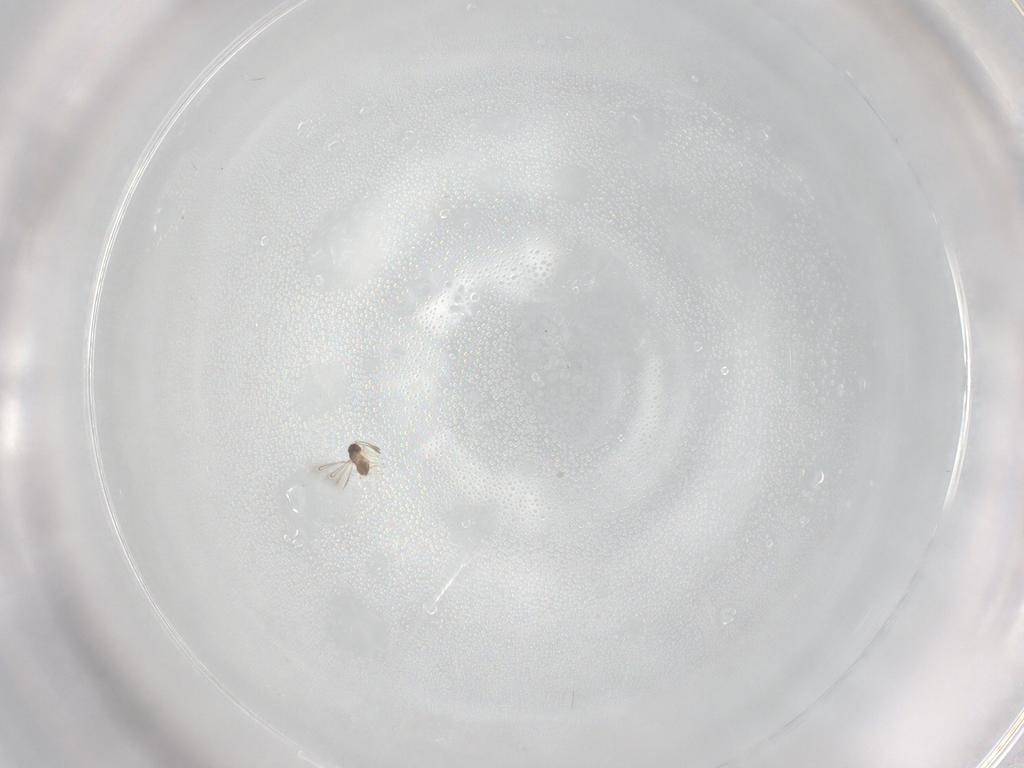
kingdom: Animalia
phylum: Arthropoda
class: Insecta
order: Hymenoptera
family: Mymaridae
